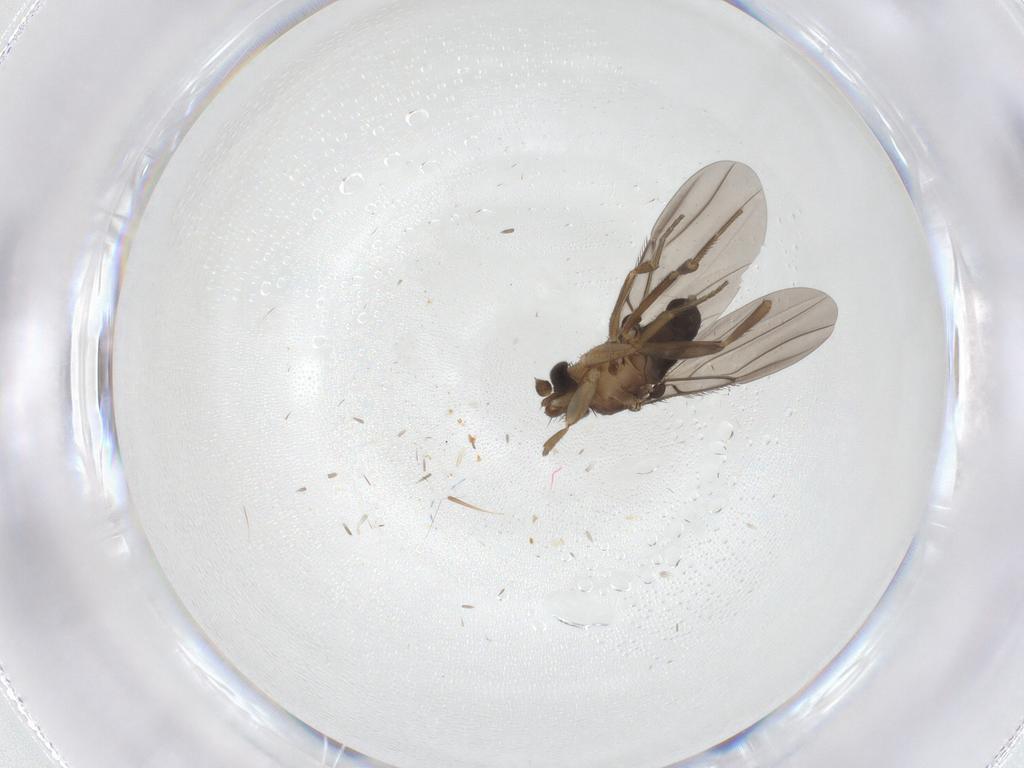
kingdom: Animalia
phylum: Arthropoda
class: Insecta
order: Diptera
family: Phoridae
